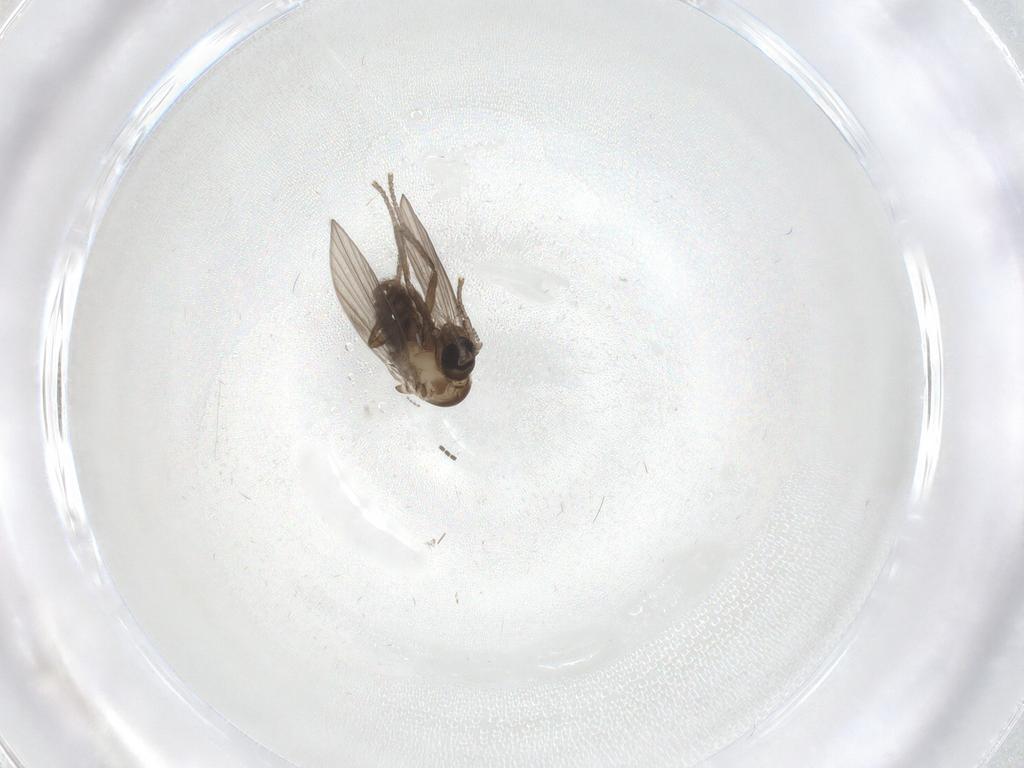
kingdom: Animalia
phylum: Arthropoda
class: Insecta
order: Diptera
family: Psychodidae
